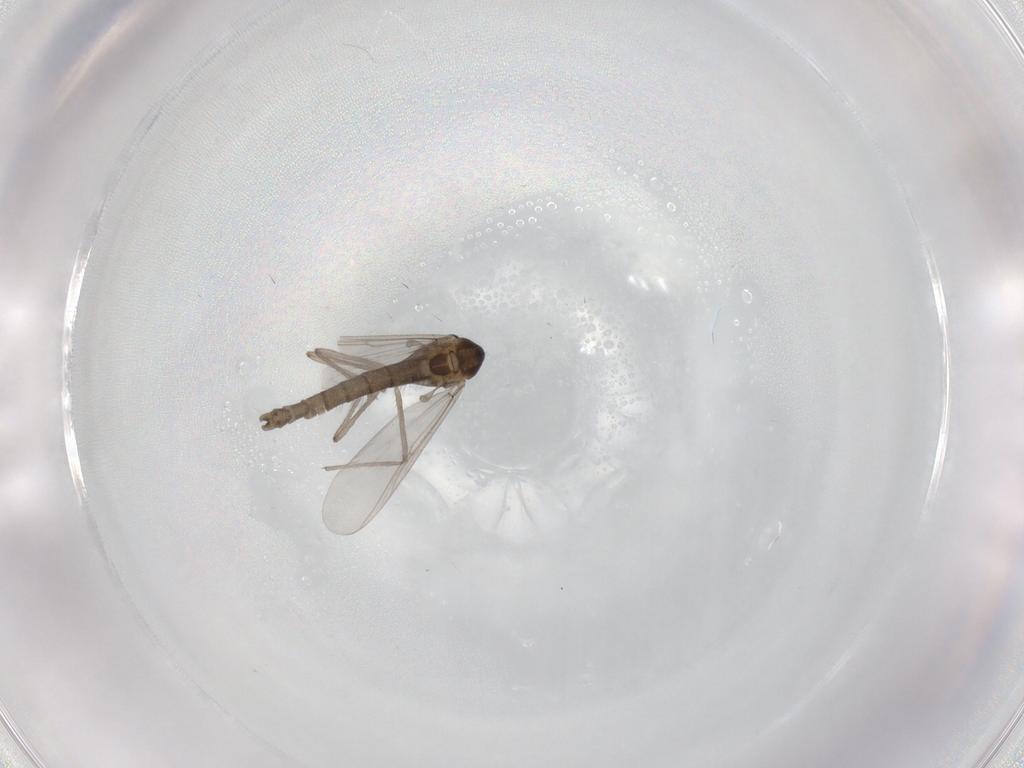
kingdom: Animalia
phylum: Arthropoda
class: Insecta
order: Diptera
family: Chironomidae
